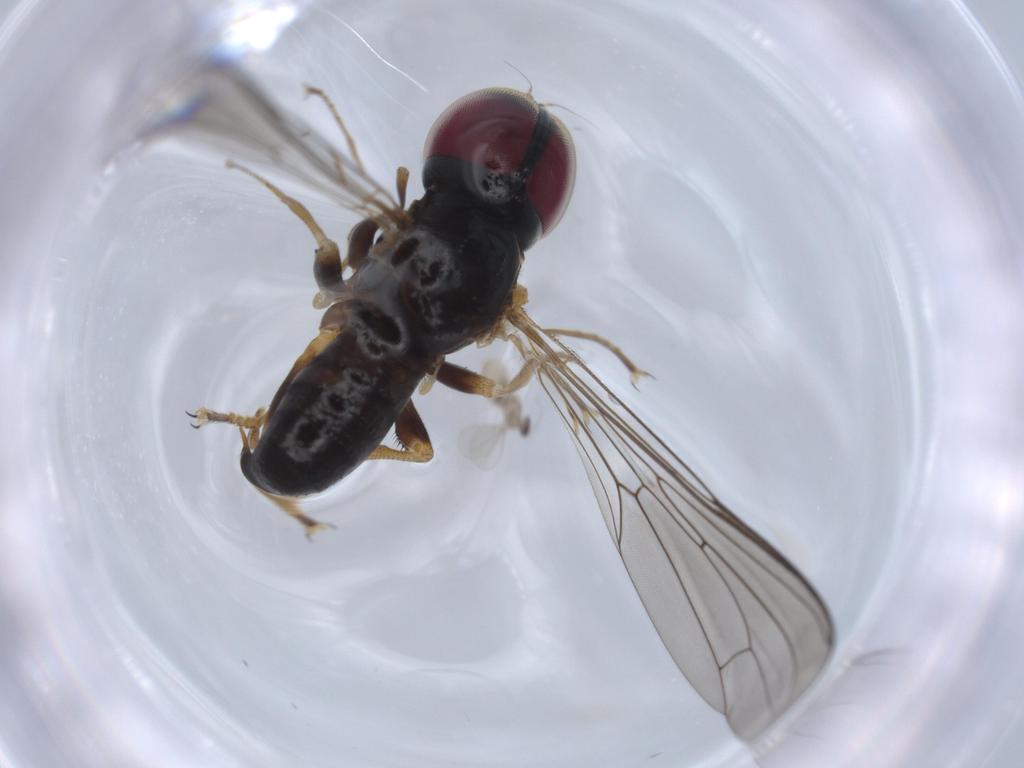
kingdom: Animalia
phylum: Arthropoda
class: Insecta
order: Diptera
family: Pipunculidae
